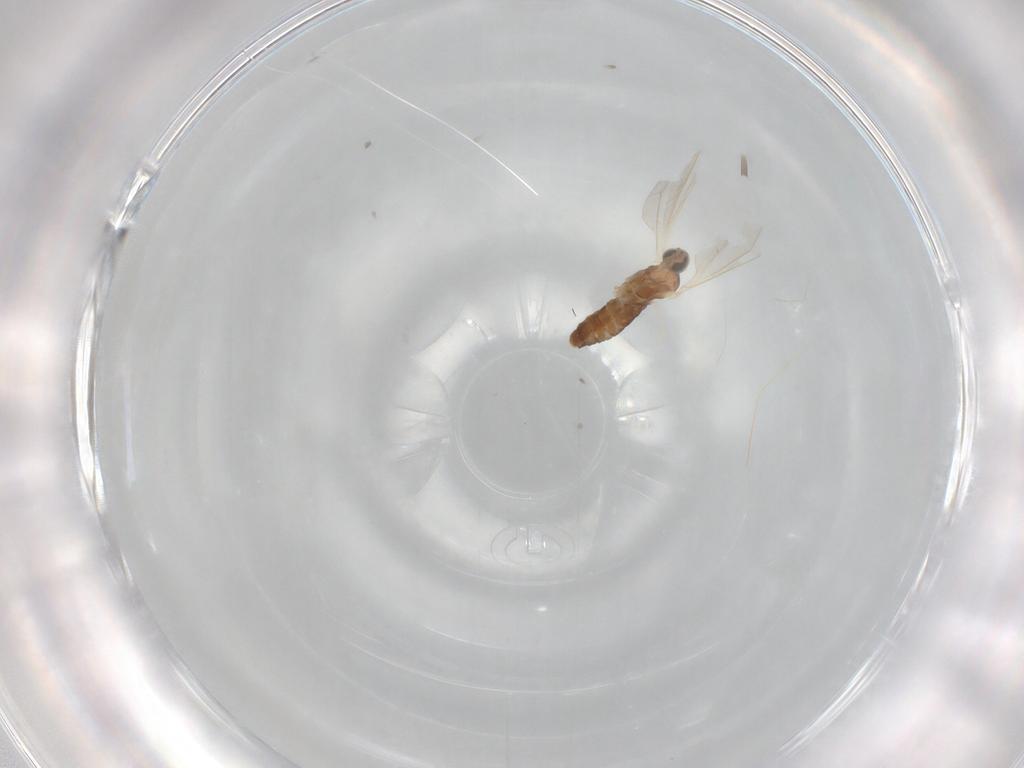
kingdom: Animalia
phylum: Arthropoda
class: Insecta
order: Diptera
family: Cecidomyiidae
